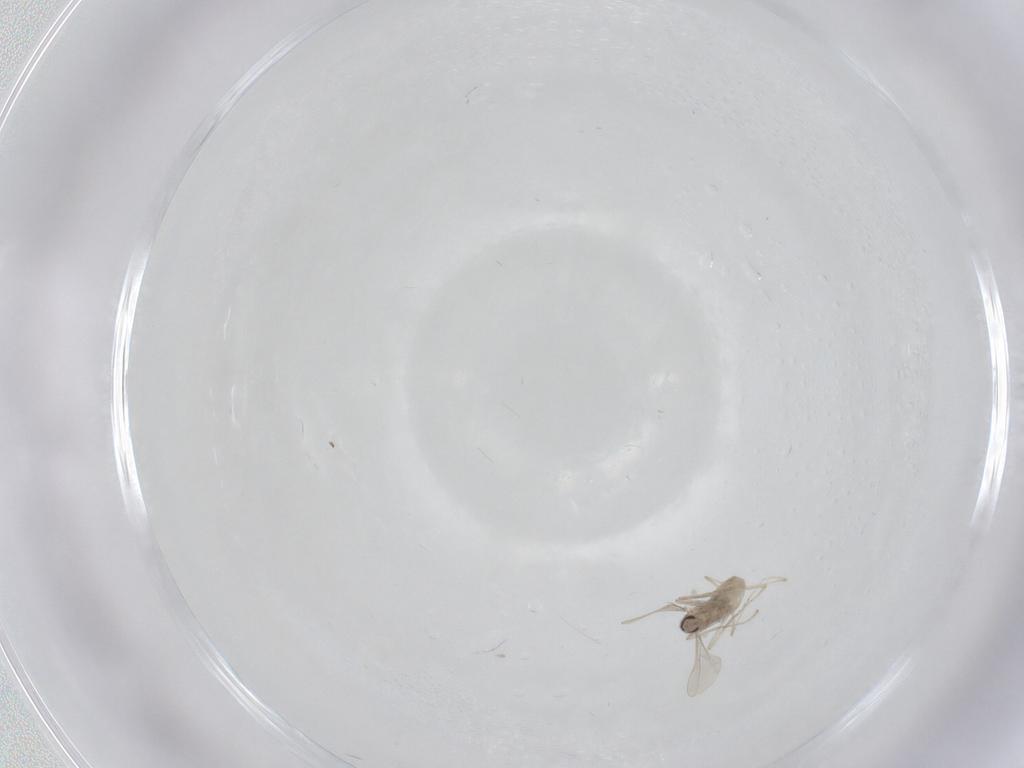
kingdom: Animalia
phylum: Arthropoda
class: Insecta
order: Diptera
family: Cecidomyiidae
